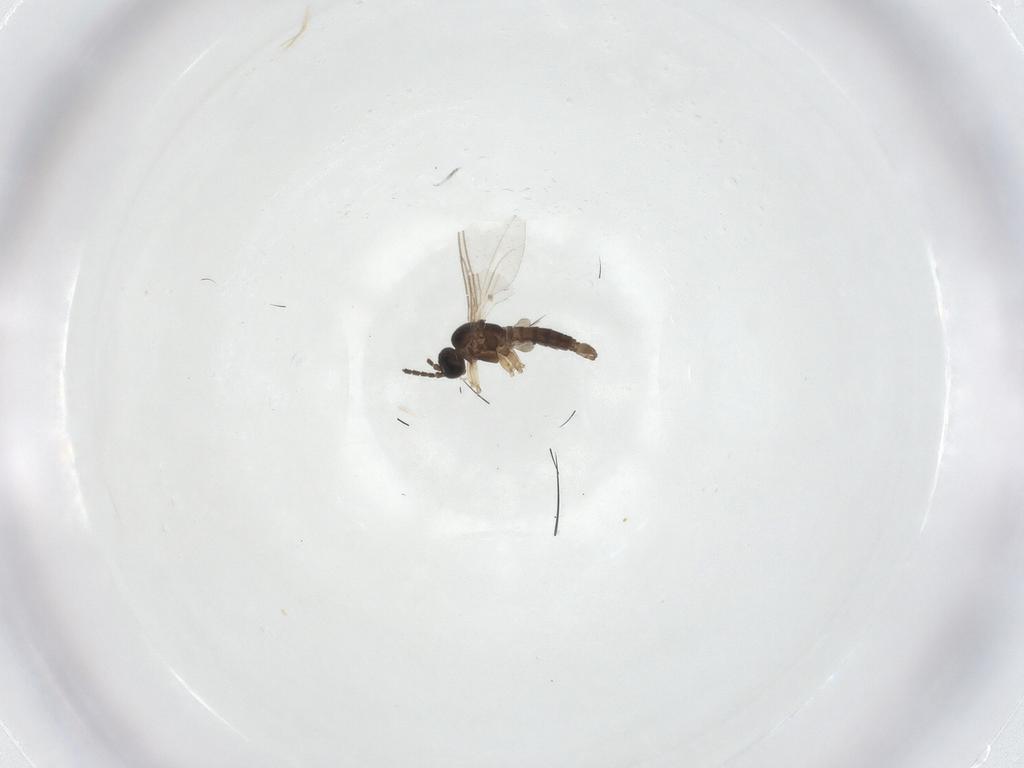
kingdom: Animalia
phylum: Arthropoda
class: Insecta
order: Diptera
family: Sciaridae
